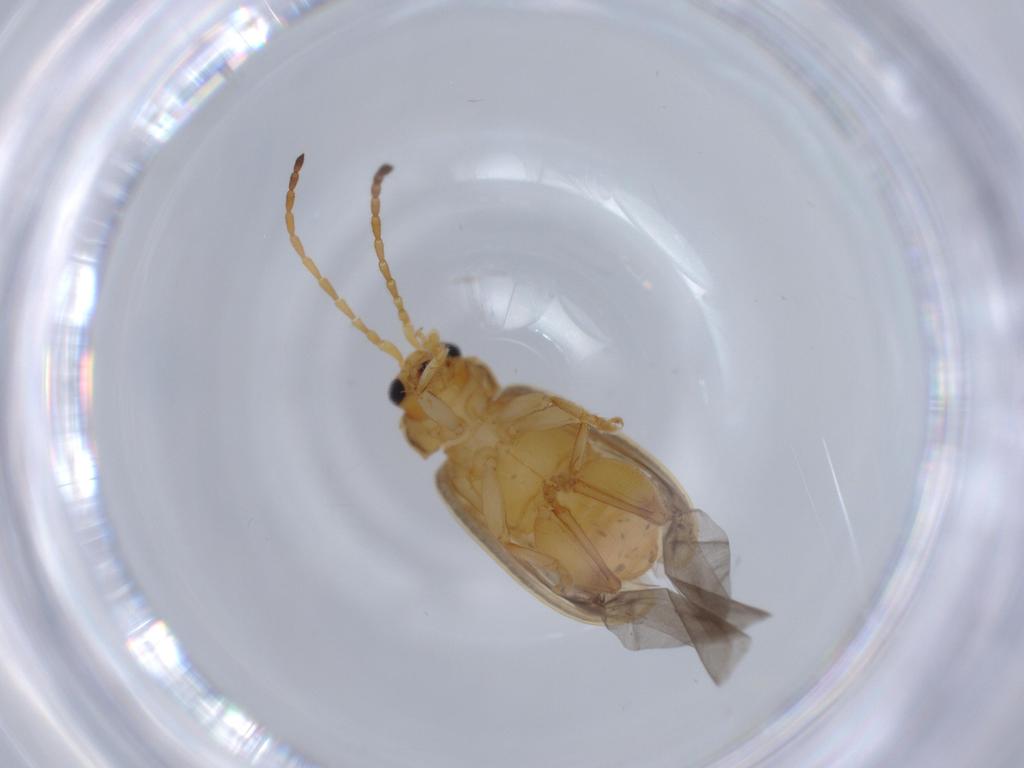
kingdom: Animalia
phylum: Arthropoda
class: Insecta
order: Coleoptera
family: Chrysomelidae
